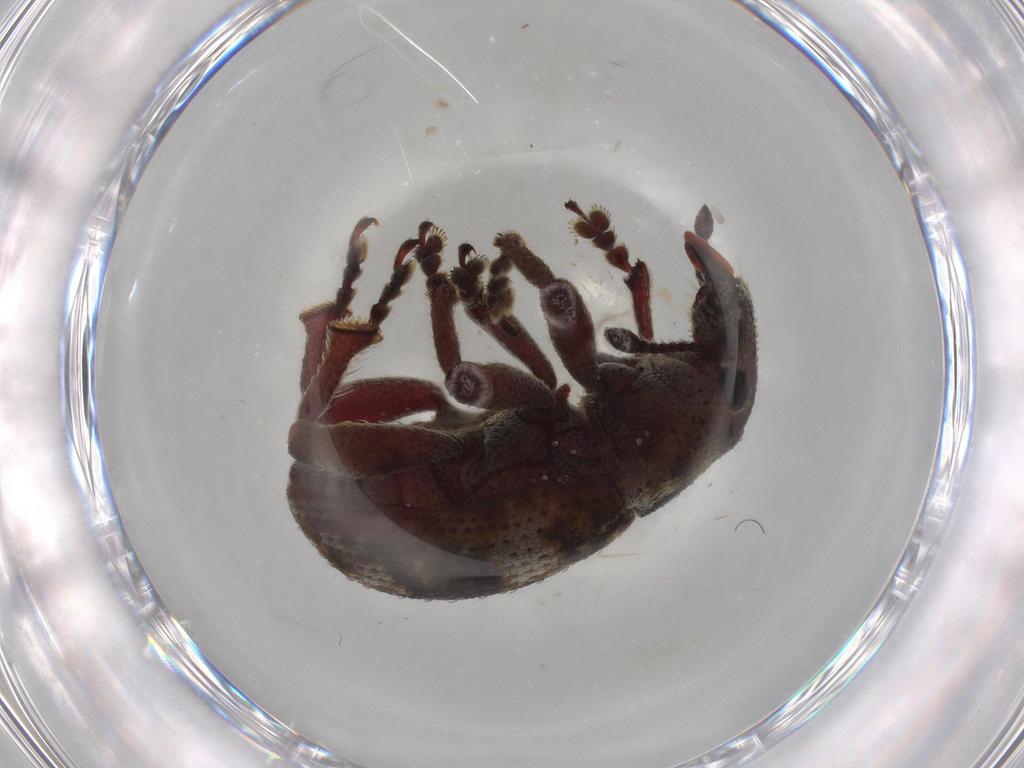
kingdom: Animalia
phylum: Arthropoda
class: Insecta
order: Coleoptera
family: Curculionidae
